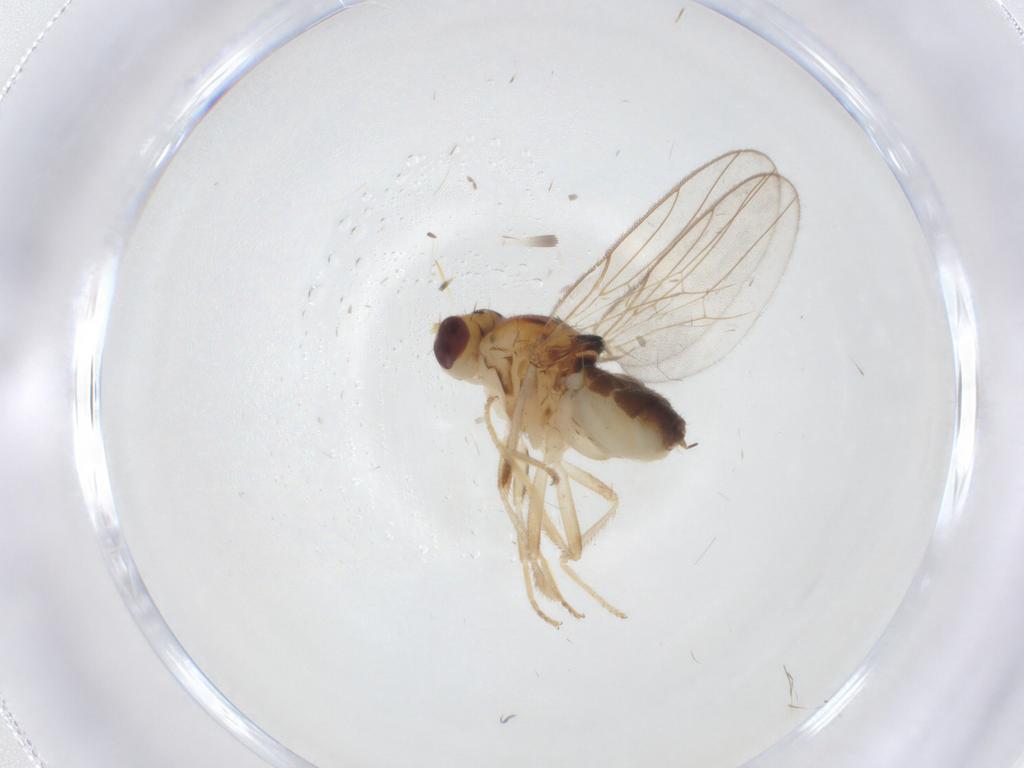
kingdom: Animalia
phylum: Arthropoda
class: Insecta
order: Diptera
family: Chloropidae
